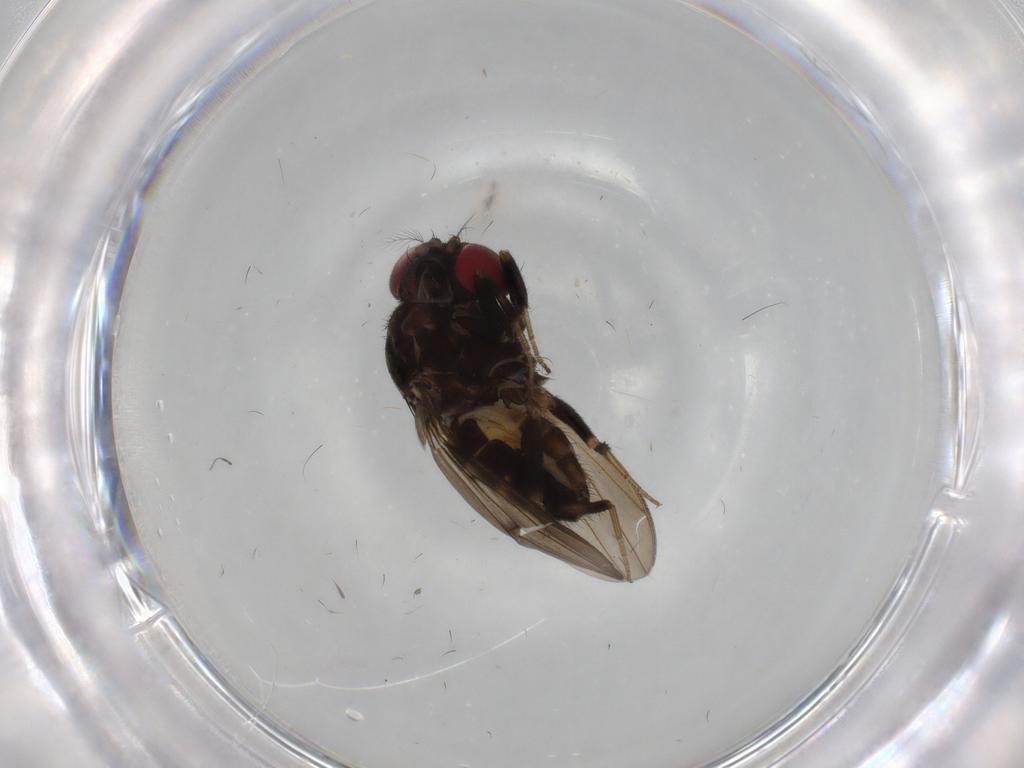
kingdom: Animalia
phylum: Arthropoda
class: Insecta
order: Diptera
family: Drosophilidae
